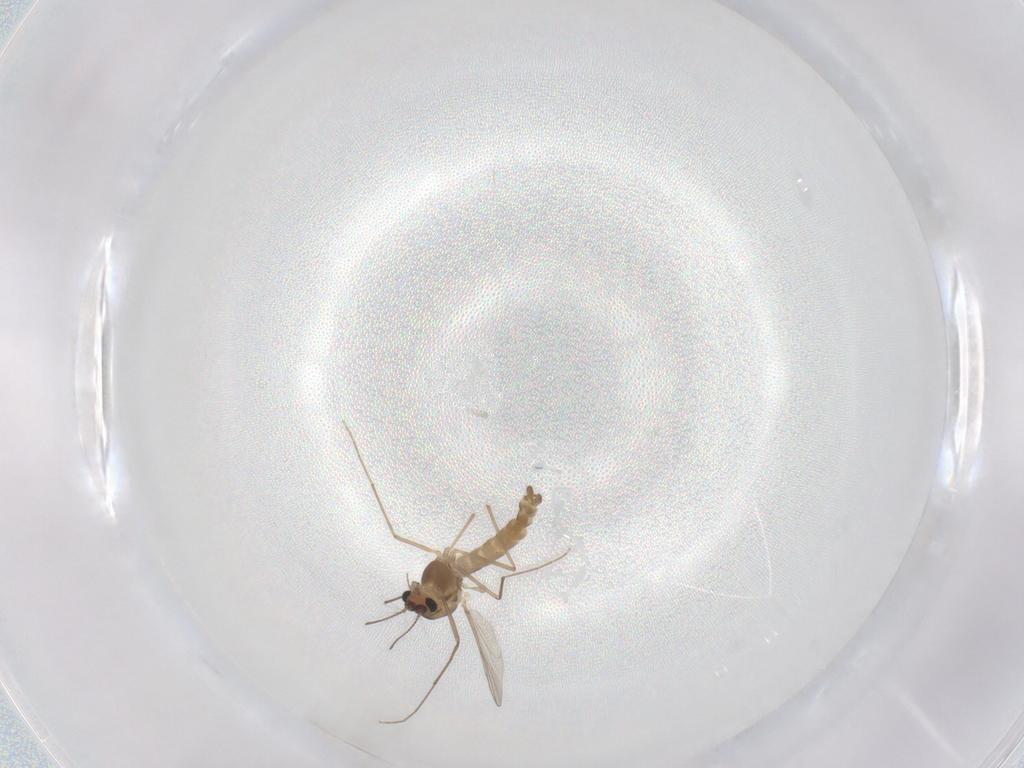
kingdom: Animalia
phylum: Arthropoda
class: Insecta
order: Diptera
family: Chironomidae
